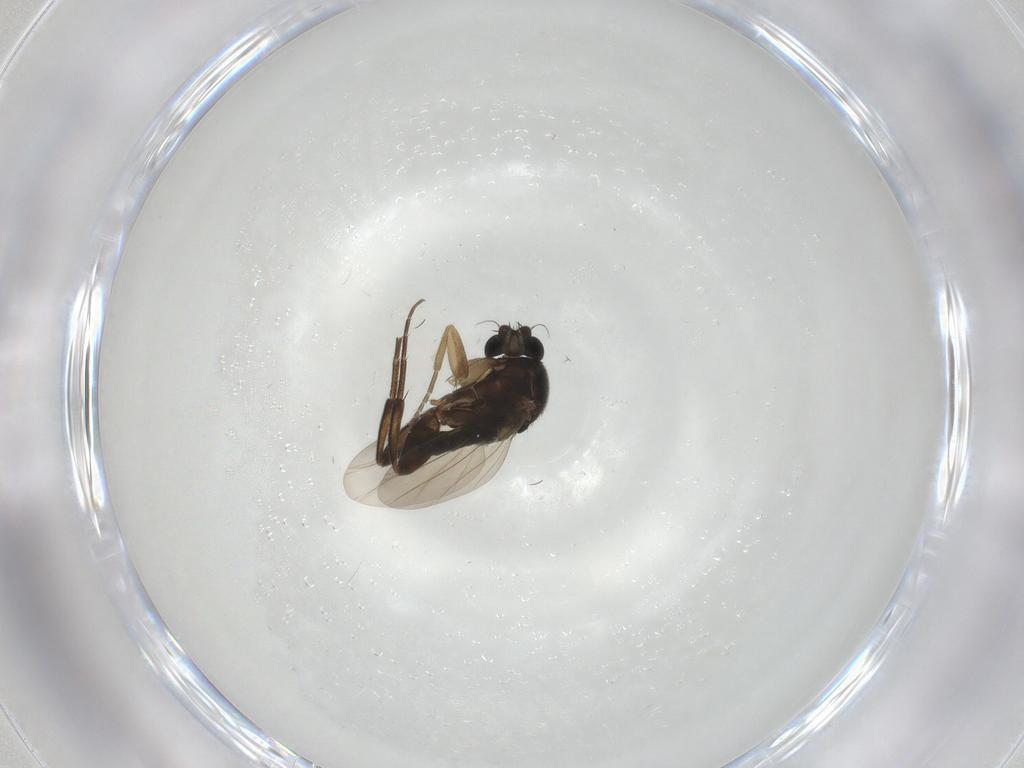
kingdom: Animalia
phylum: Arthropoda
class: Insecta
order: Diptera
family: Phoridae
